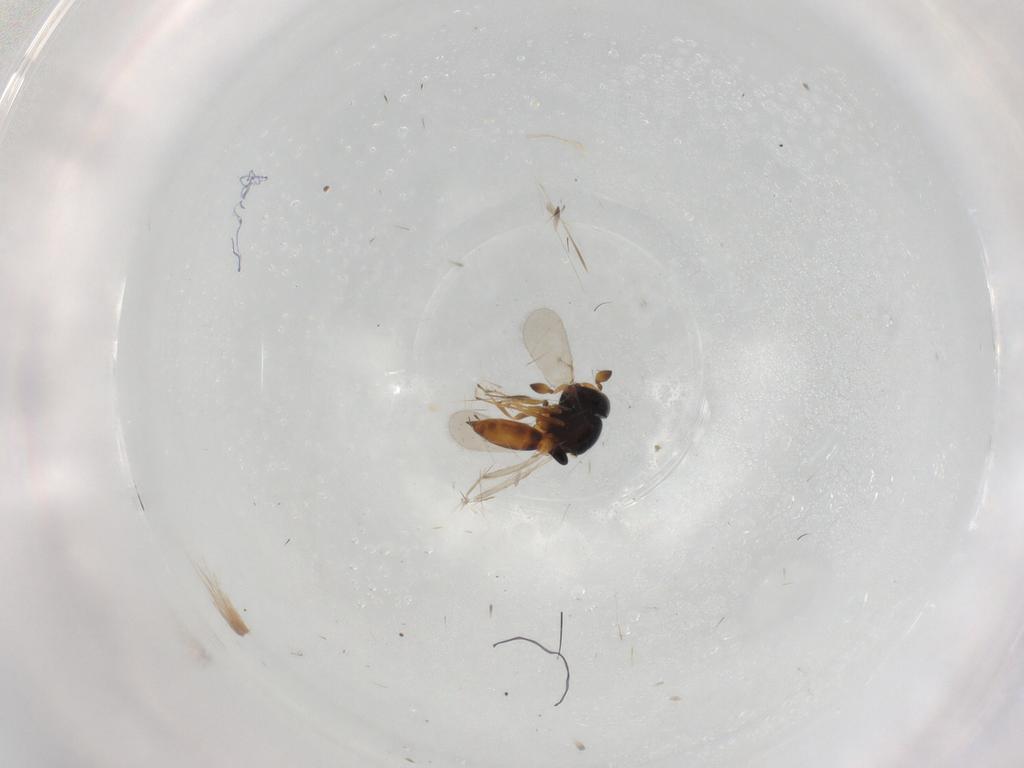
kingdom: Animalia
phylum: Arthropoda
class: Insecta
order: Hymenoptera
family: Scelionidae
